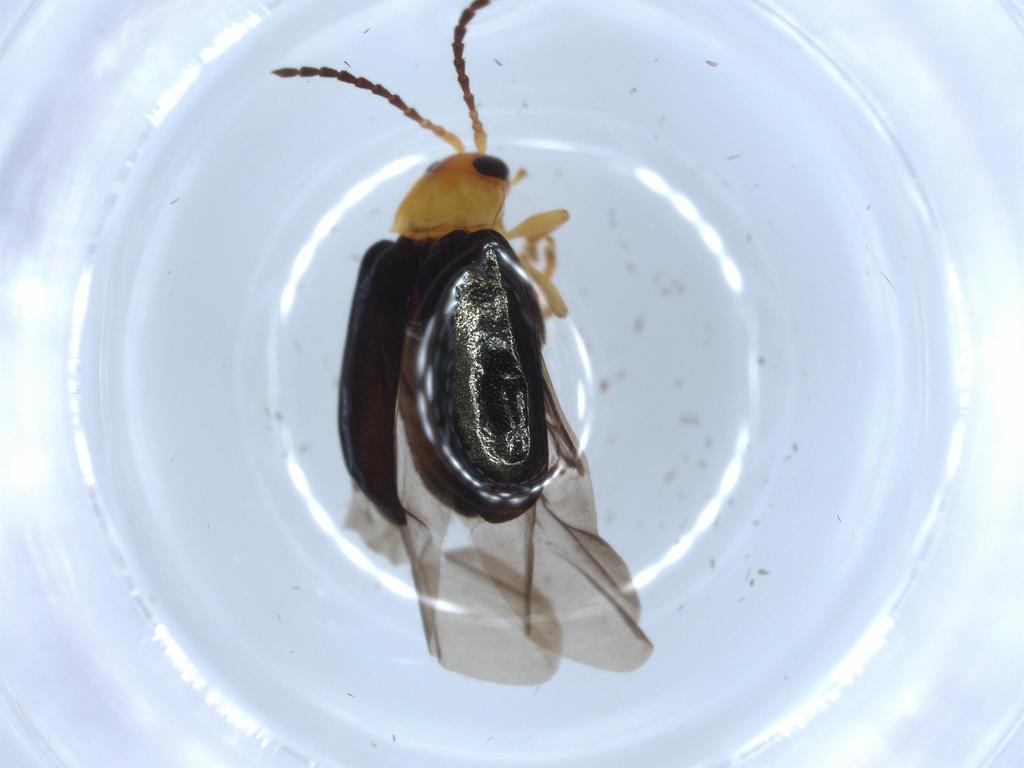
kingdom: Animalia
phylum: Arthropoda
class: Insecta
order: Coleoptera
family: Chrysomelidae
